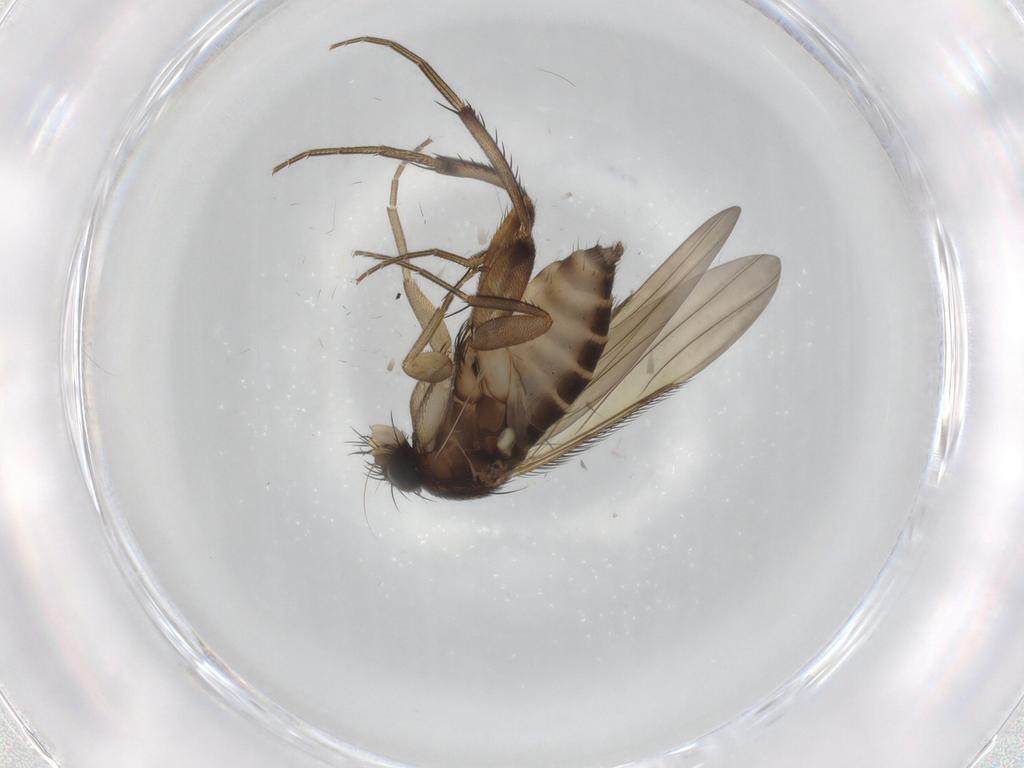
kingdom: Animalia
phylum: Arthropoda
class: Insecta
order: Diptera
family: Phoridae
